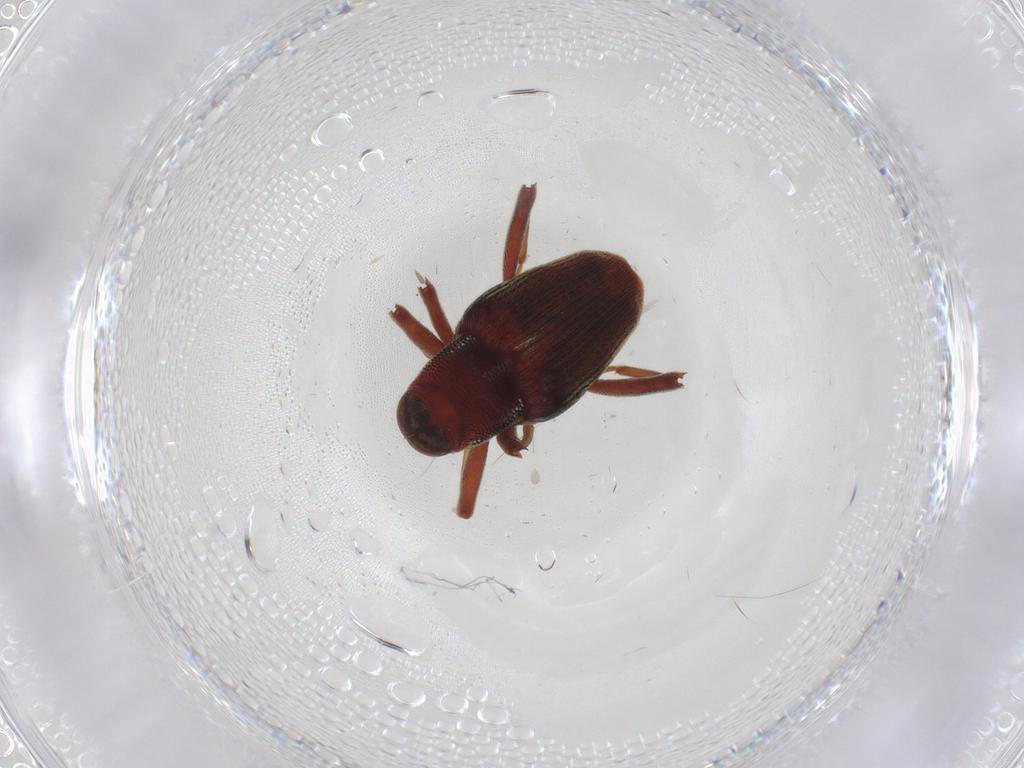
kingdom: Animalia
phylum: Arthropoda
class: Insecta
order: Coleoptera
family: Curculionidae
